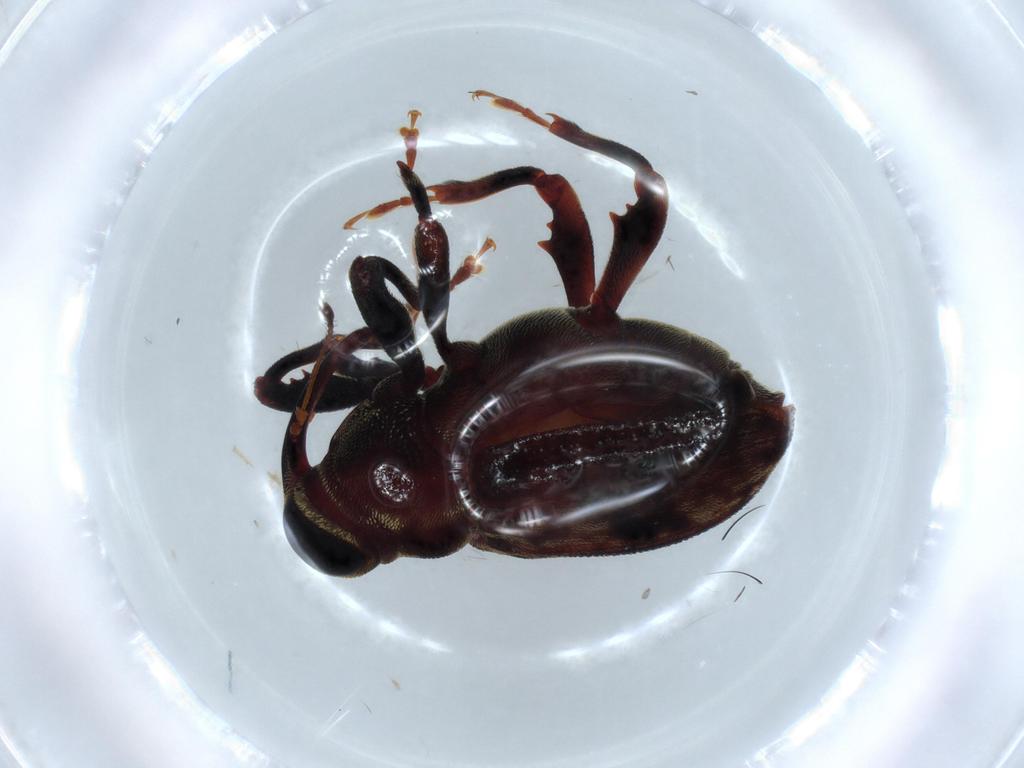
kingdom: Animalia
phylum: Arthropoda
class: Insecta
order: Coleoptera
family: Curculionidae
